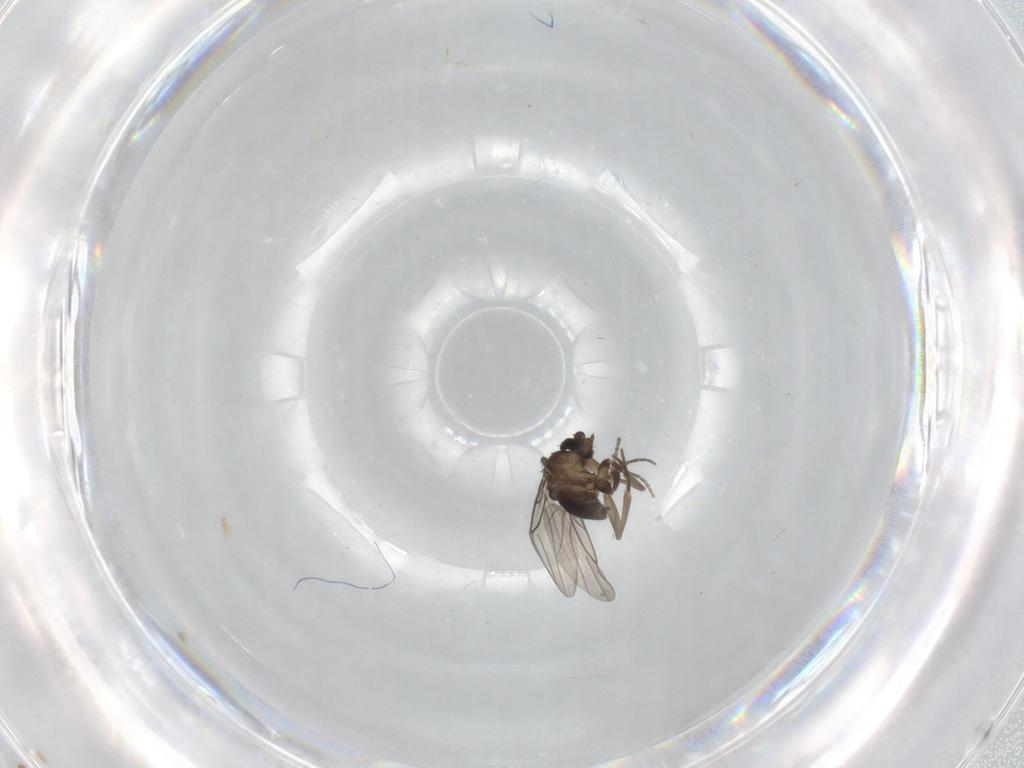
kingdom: Animalia
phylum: Arthropoda
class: Insecta
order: Diptera
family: Phoridae
